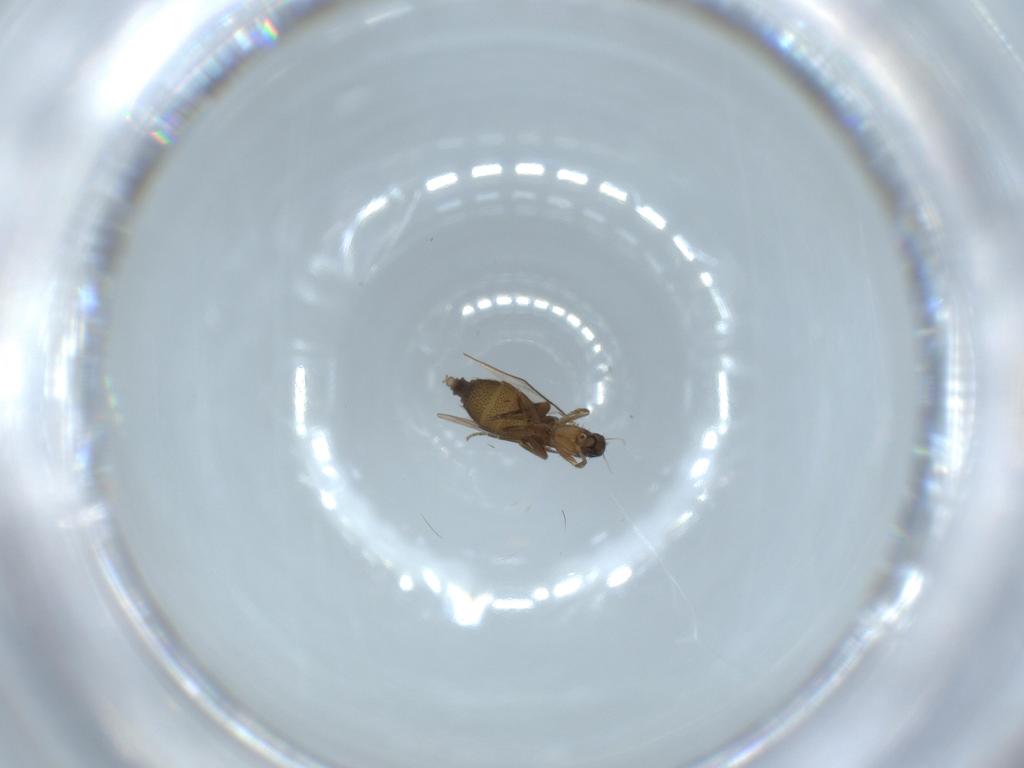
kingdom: Animalia
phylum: Arthropoda
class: Insecta
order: Diptera
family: Phoridae
